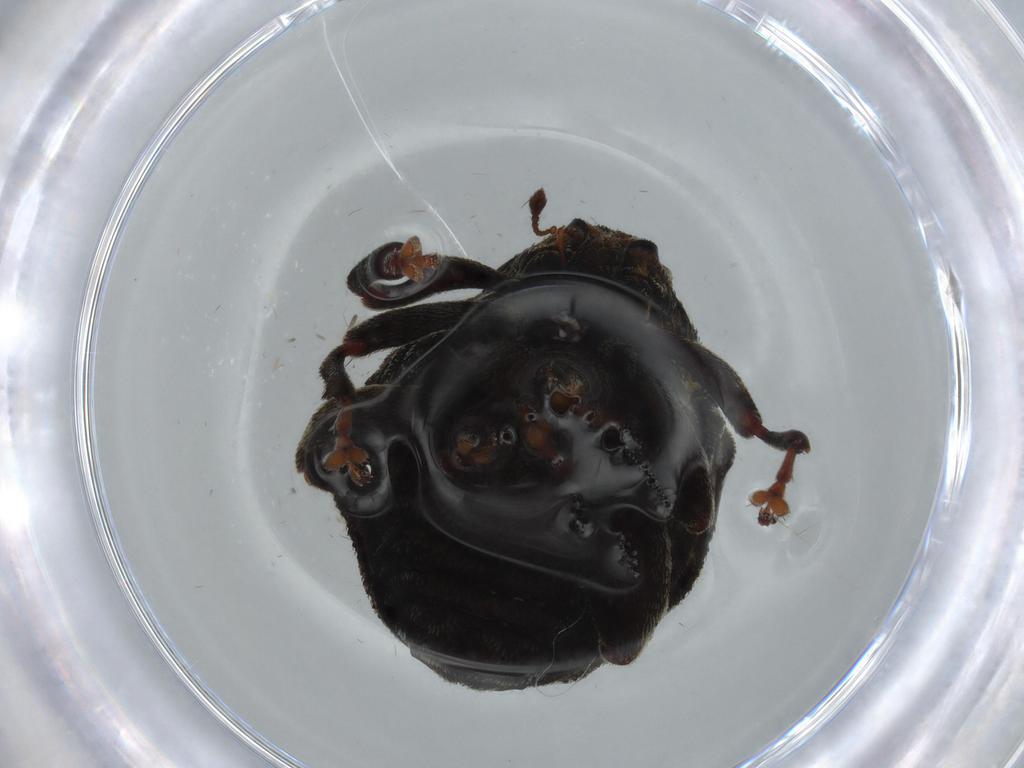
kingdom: Animalia
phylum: Arthropoda
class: Insecta
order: Coleoptera
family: Curculionidae
